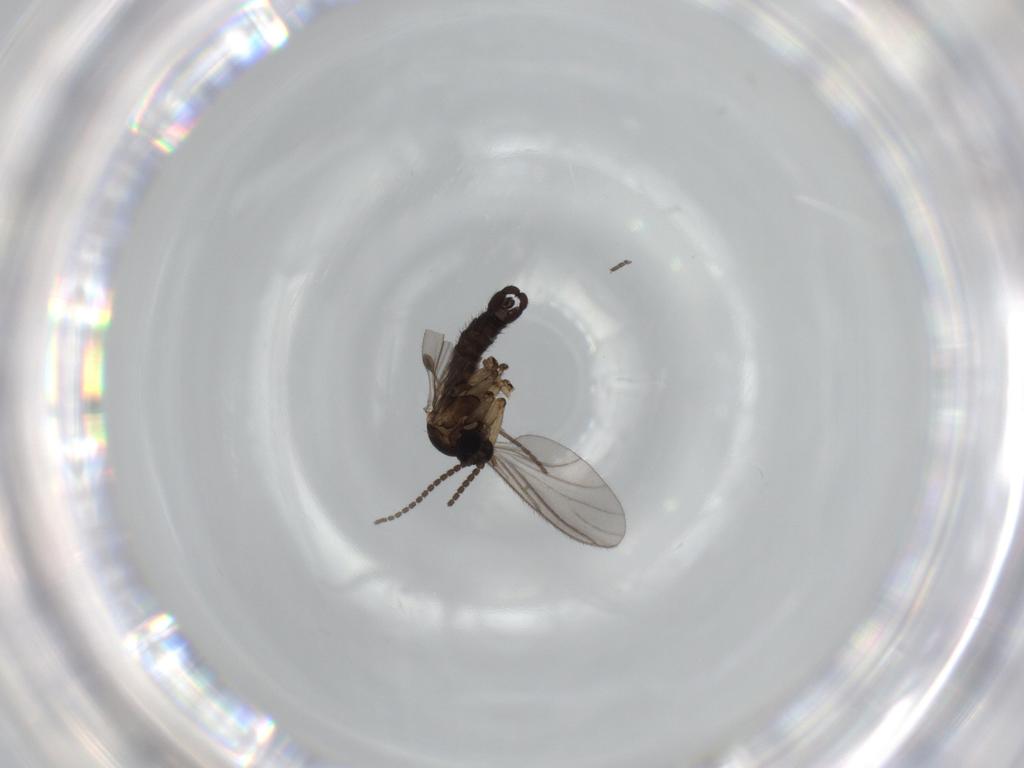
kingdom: Animalia
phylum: Arthropoda
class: Insecta
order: Diptera
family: Sciaridae
